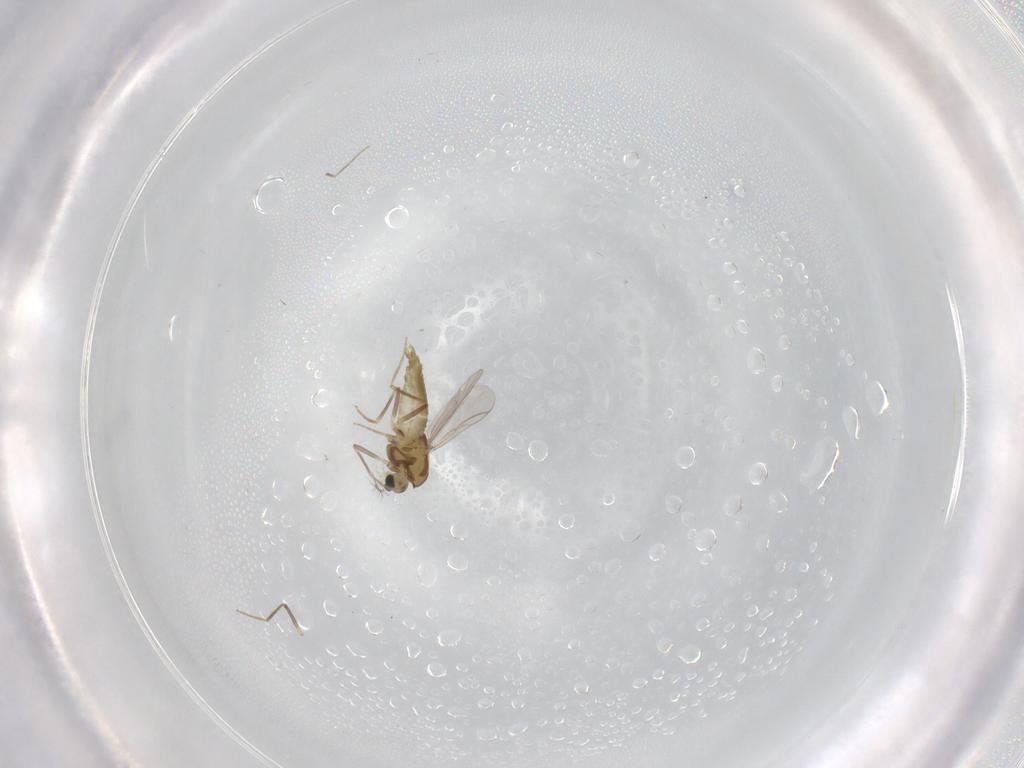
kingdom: Animalia
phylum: Arthropoda
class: Insecta
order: Diptera
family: Chironomidae
